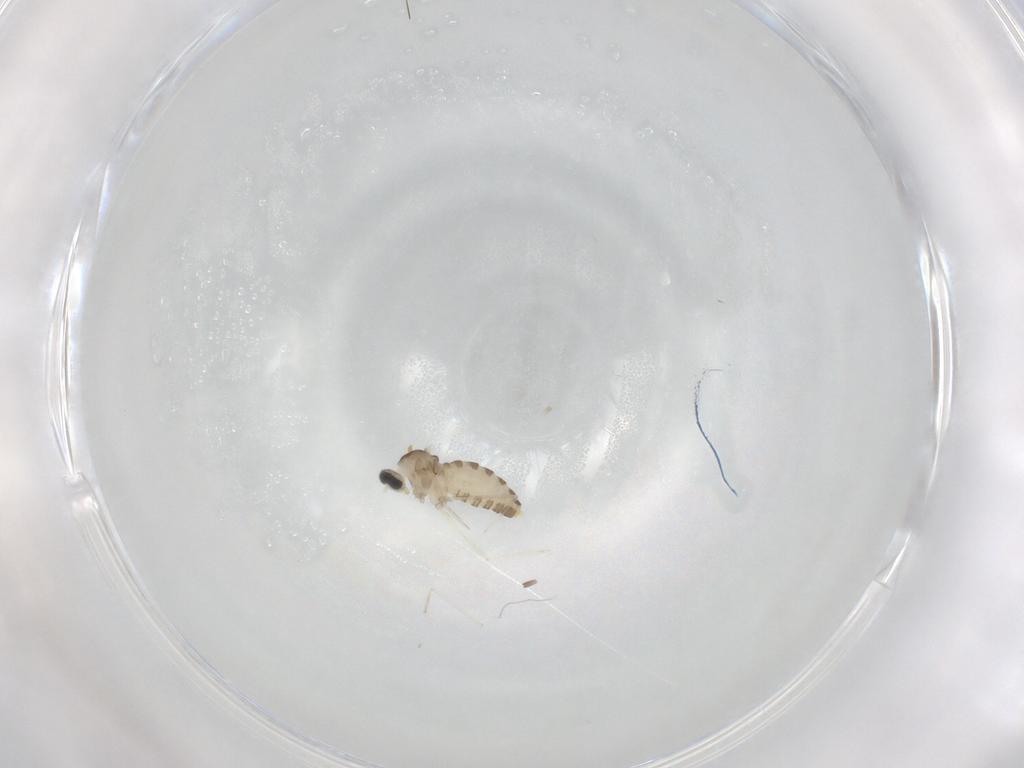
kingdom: Animalia
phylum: Arthropoda
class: Insecta
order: Diptera
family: Cecidomyiidae
